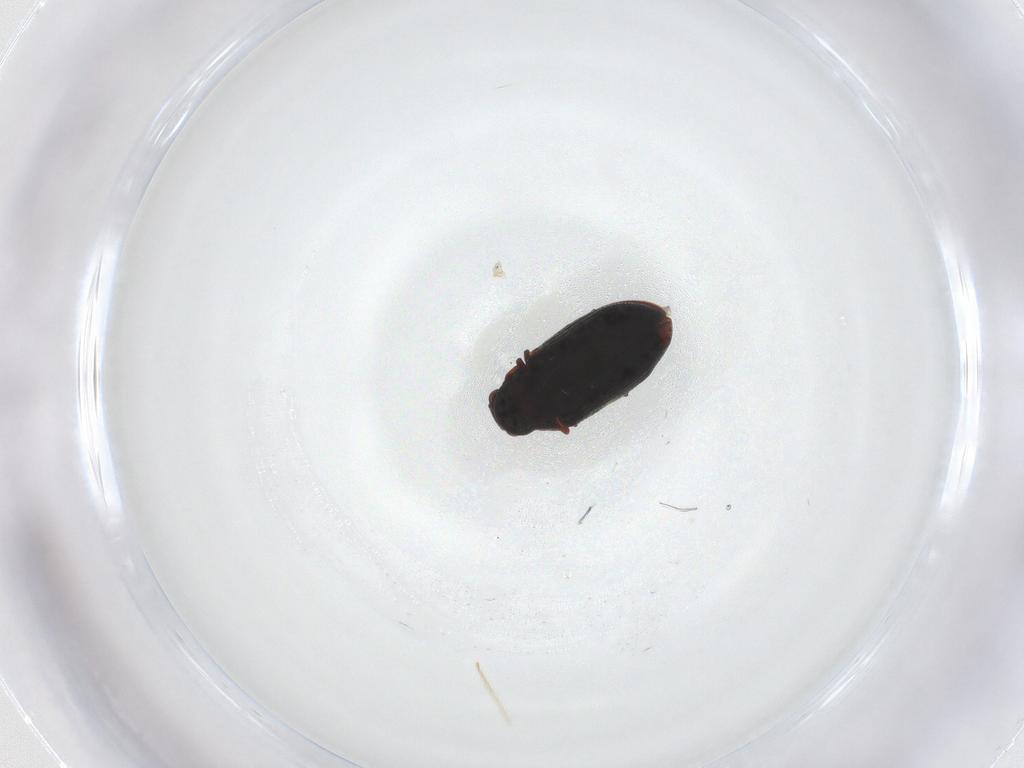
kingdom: Animalia
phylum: Arthropoda
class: Insecta
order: Coleoptera
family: Ptinidae
